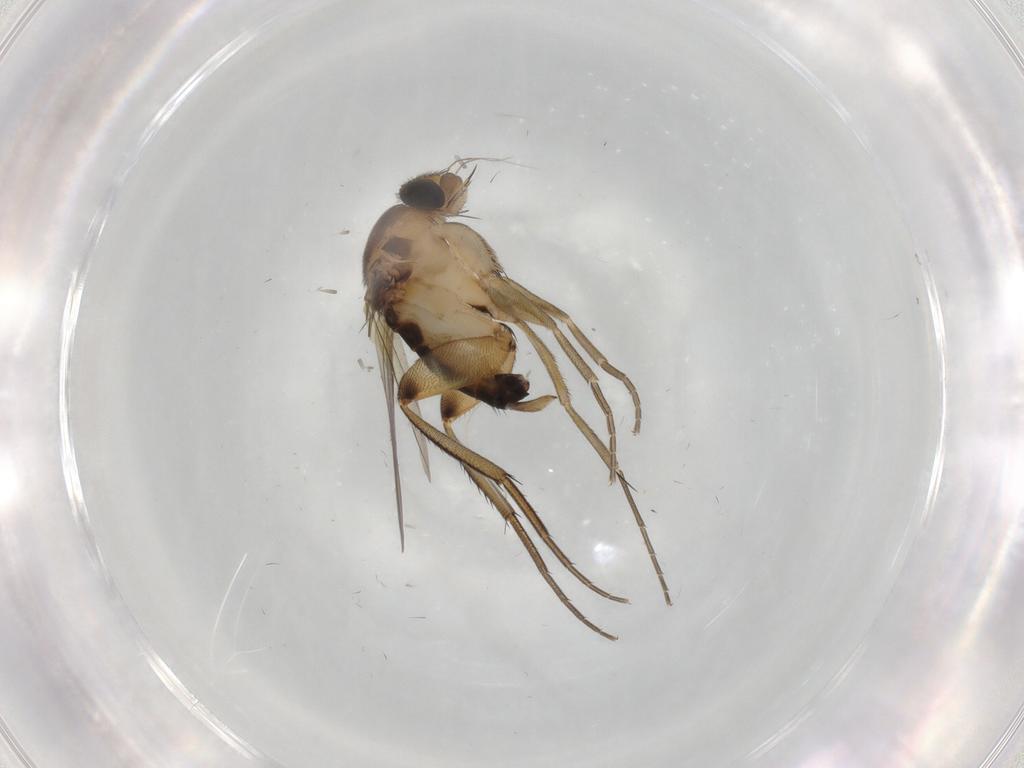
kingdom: Animalia
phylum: Arthropoda
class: Insecta
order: Diptera
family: Phoridae
